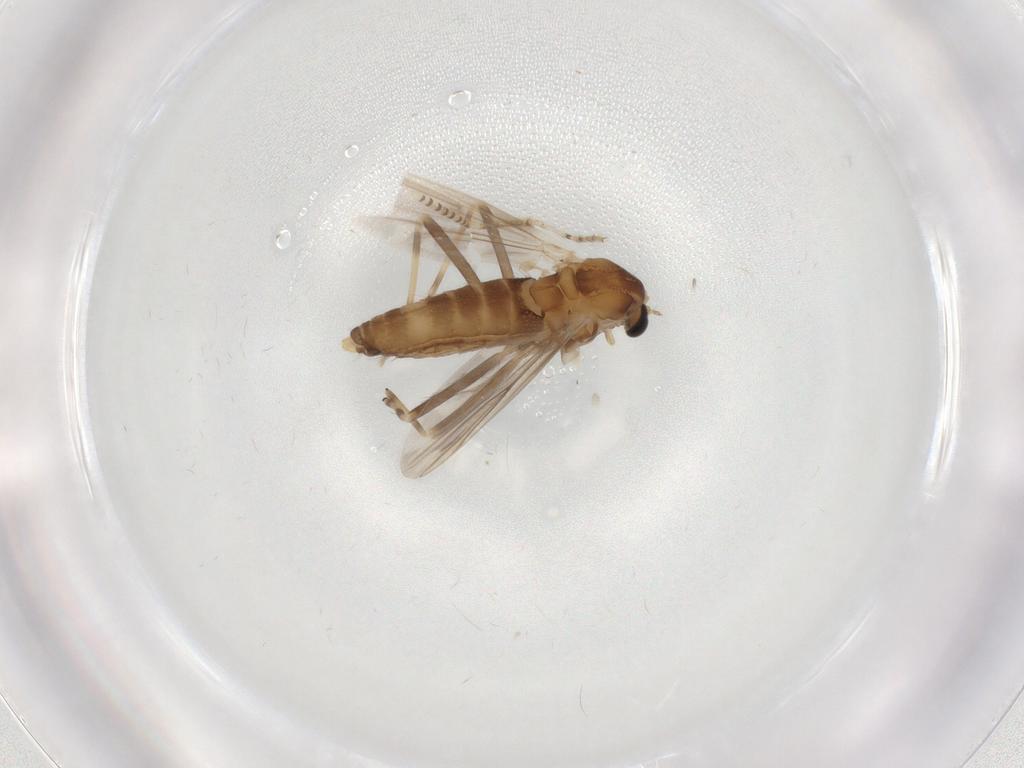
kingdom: Animalia
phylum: Arthropoda
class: Insecta
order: Diptera
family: Chironomidae
